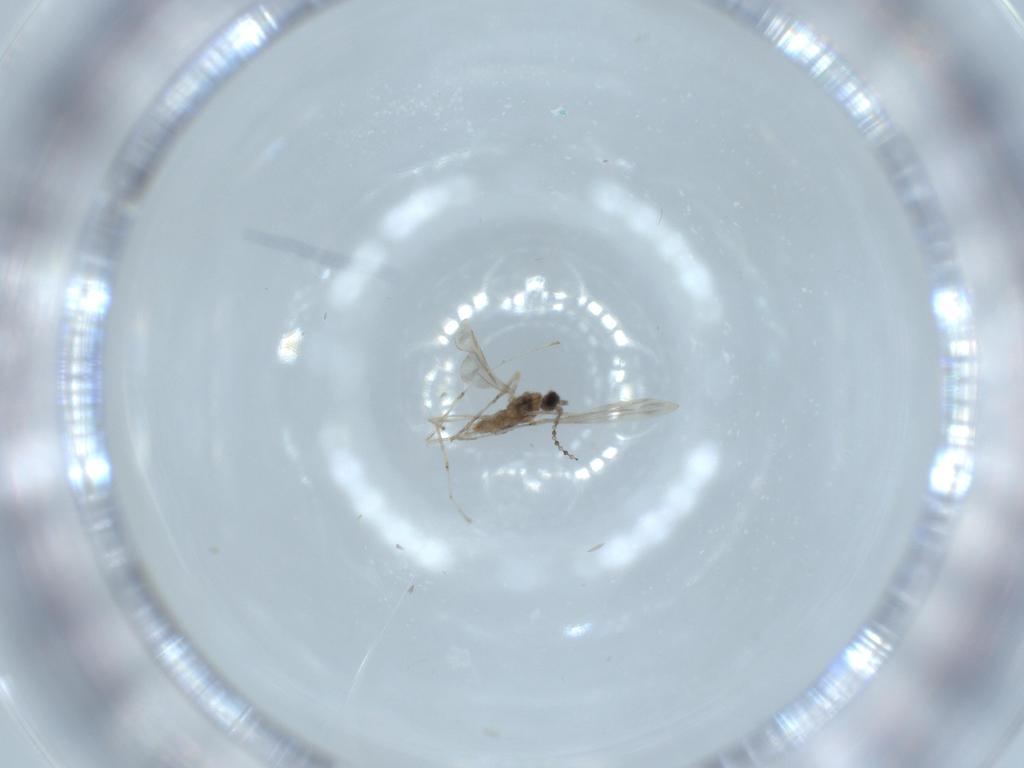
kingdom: Animalia
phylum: Arthropoda
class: Insecta
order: Diptera
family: Cecidomyiidae
